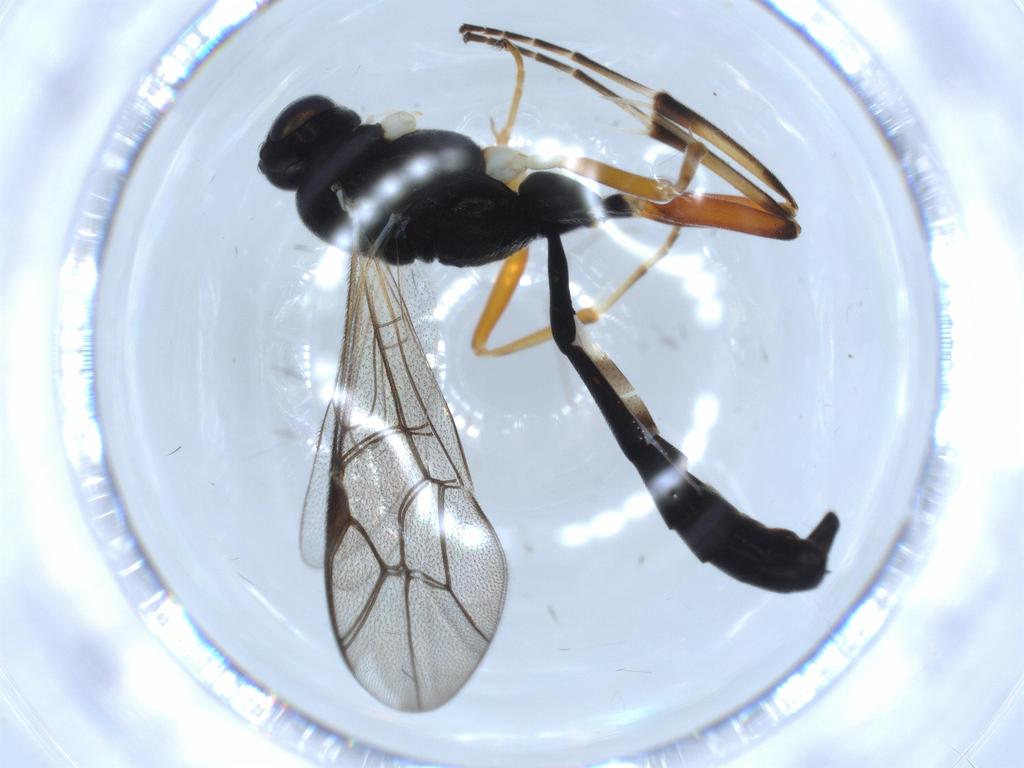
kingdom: Animalia
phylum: Arthropoda
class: Insecta
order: Hymenoptera
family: Ichneumonidae
